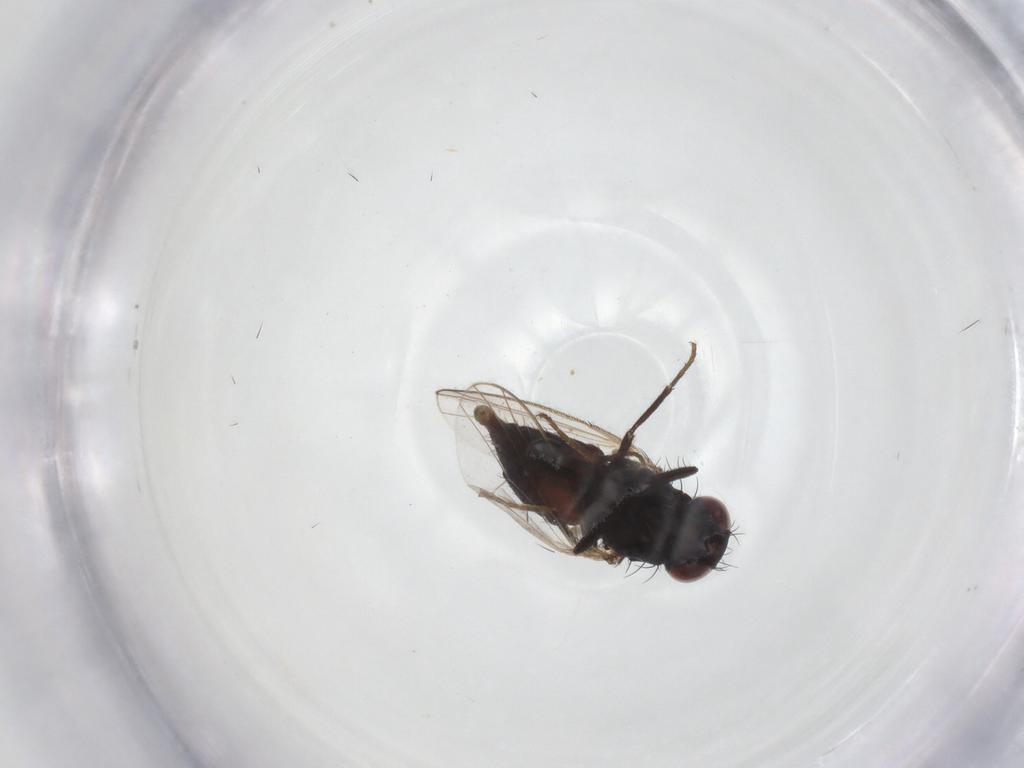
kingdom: Animalia
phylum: Arthropoda
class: Insecta
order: Diptera
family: Carnidae
